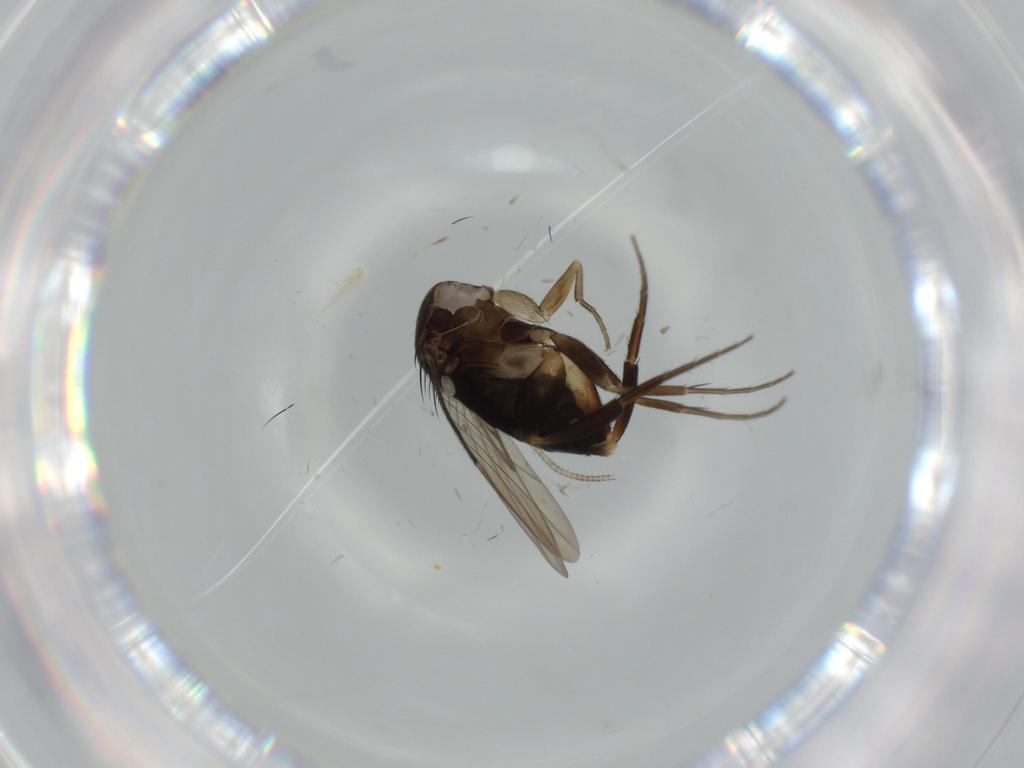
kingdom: Animalia
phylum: Arthropoda
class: Insecta
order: Diptera
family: Phoridae
